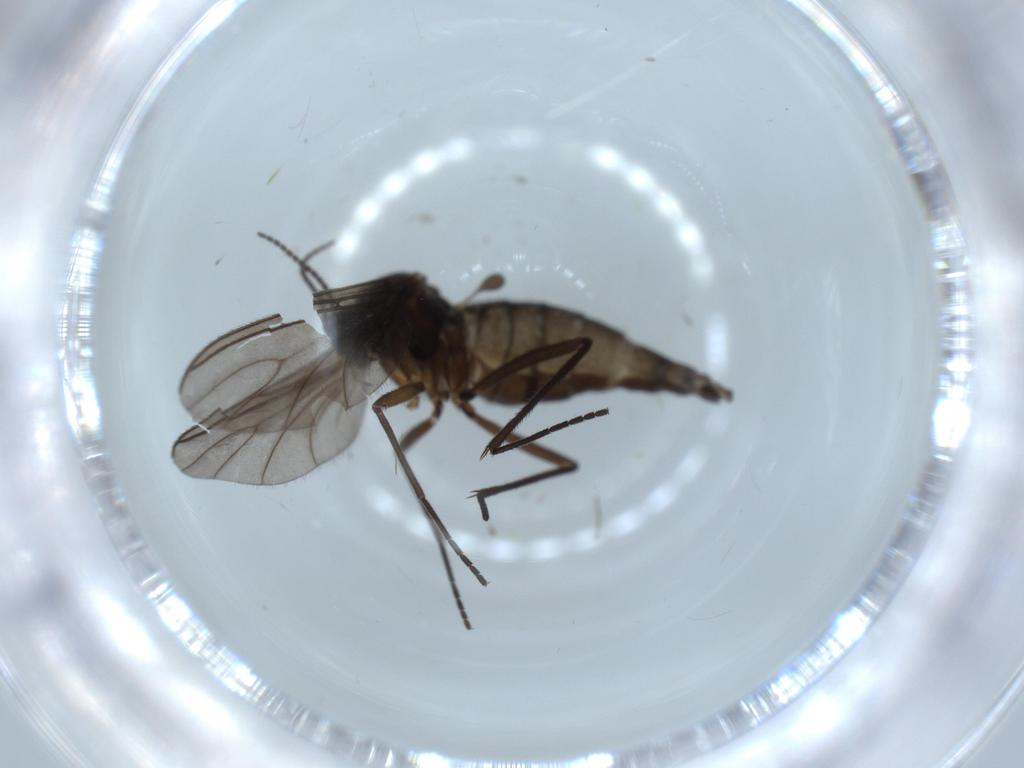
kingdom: Animalia
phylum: Arthropoda
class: Insecta
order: Diptera
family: Sciaridae
